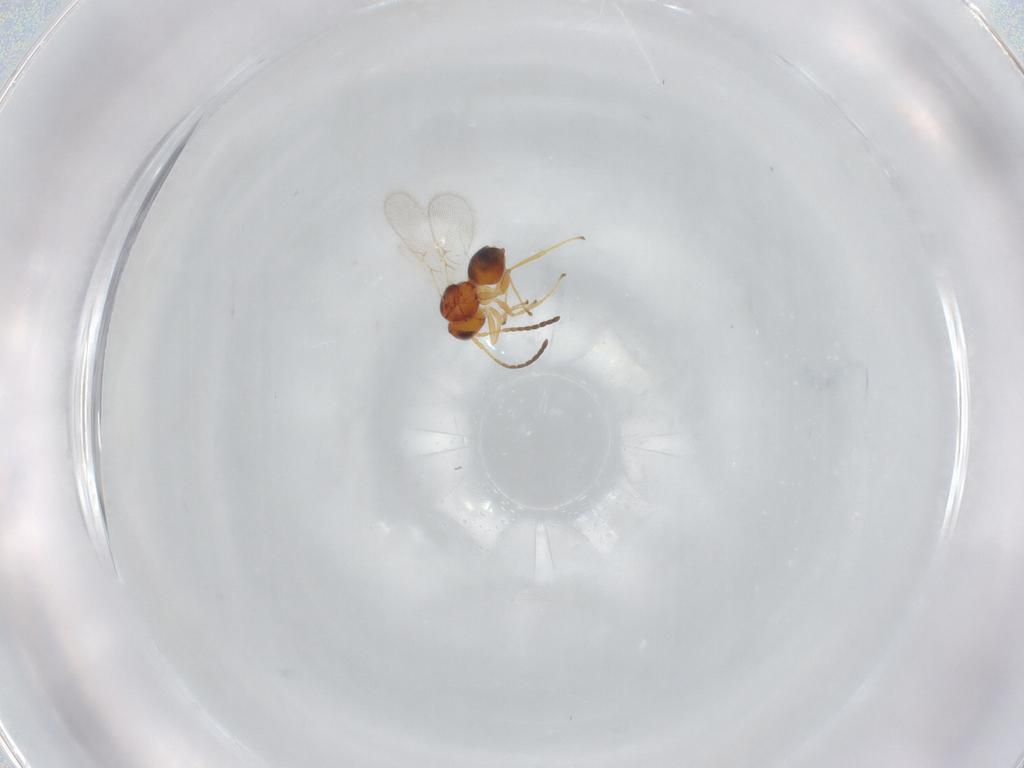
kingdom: Animalia
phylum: Arthropoda
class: Insecta
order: Hymenoptera
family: Figitidae
